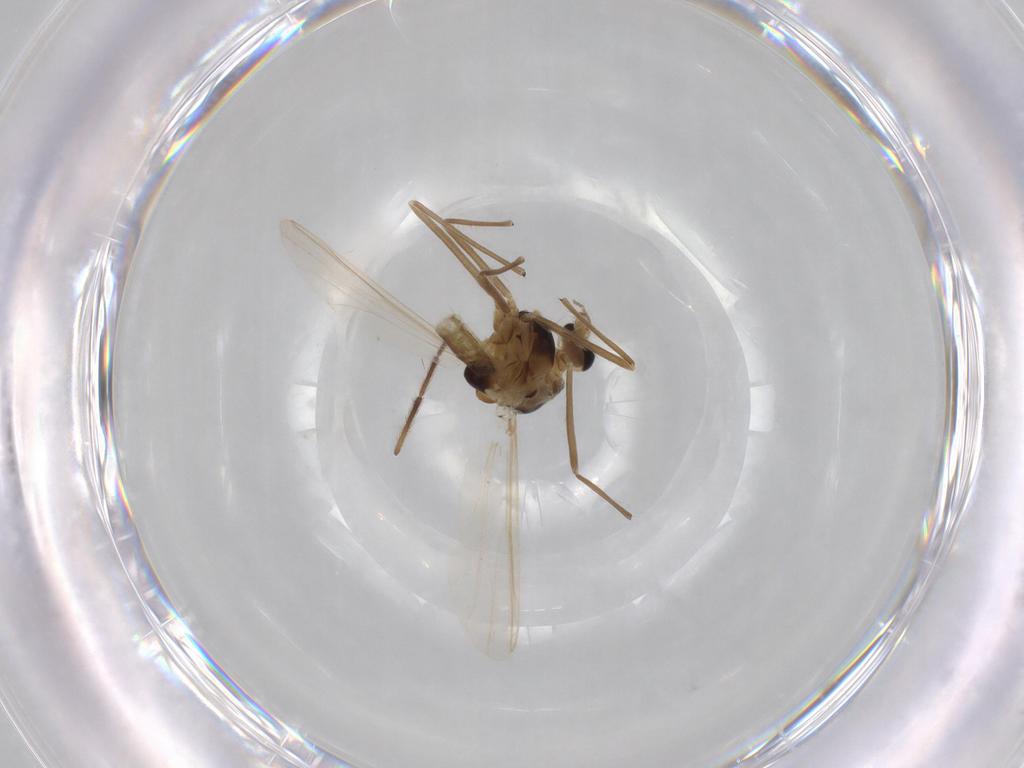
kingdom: Animalia
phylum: Arthropoda
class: Insecta
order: Diptera
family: Chironomidae
